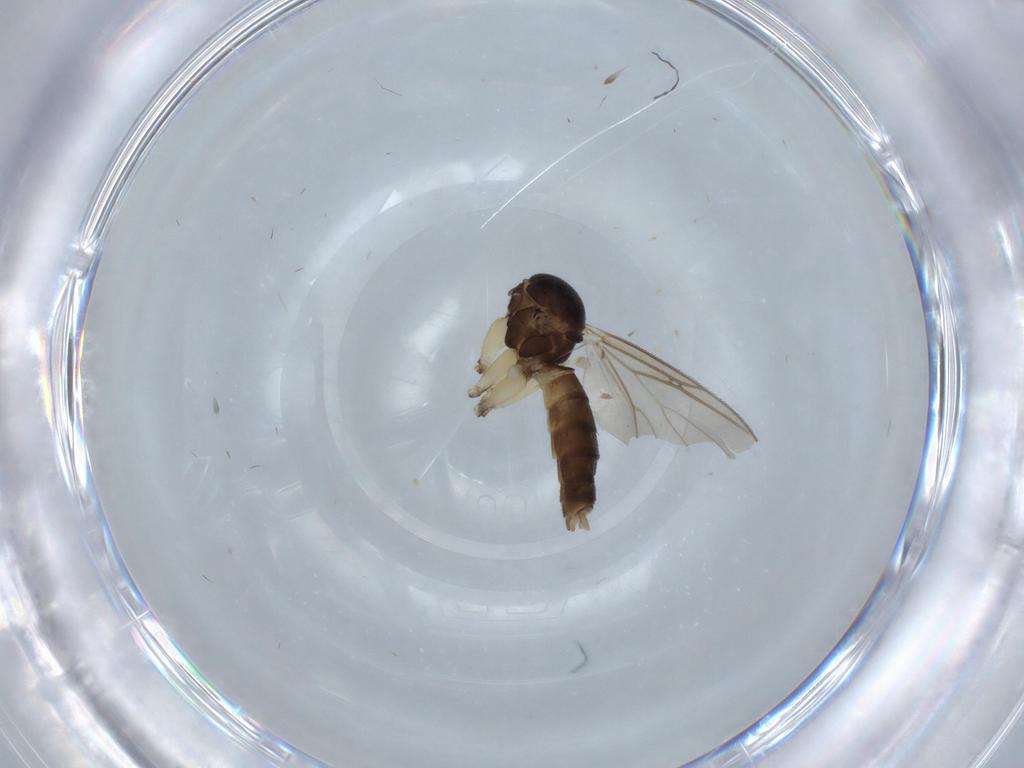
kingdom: Animalia
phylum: Arthropoda
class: Insecta
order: Diptera
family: Mycetophilidae
